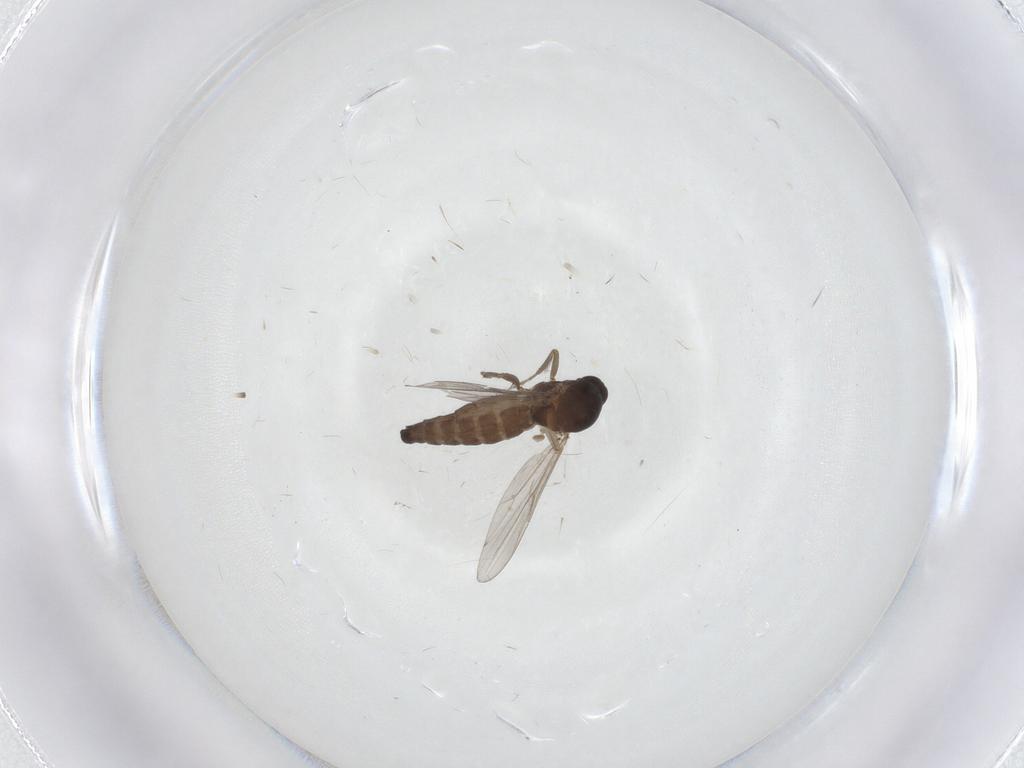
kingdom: Animalia
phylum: Arthropoda
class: Insecta
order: Diptera
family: Ceratopogonidae
